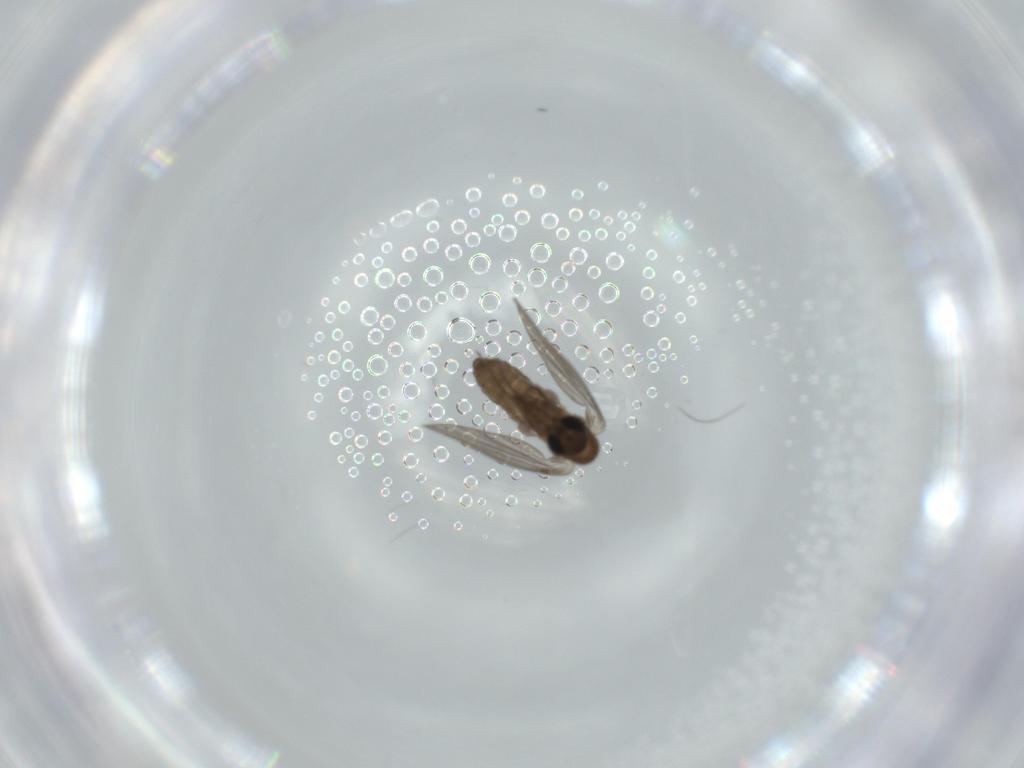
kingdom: Animalia
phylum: Arthropoda
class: Insecta
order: Diptera
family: Psychodidae
